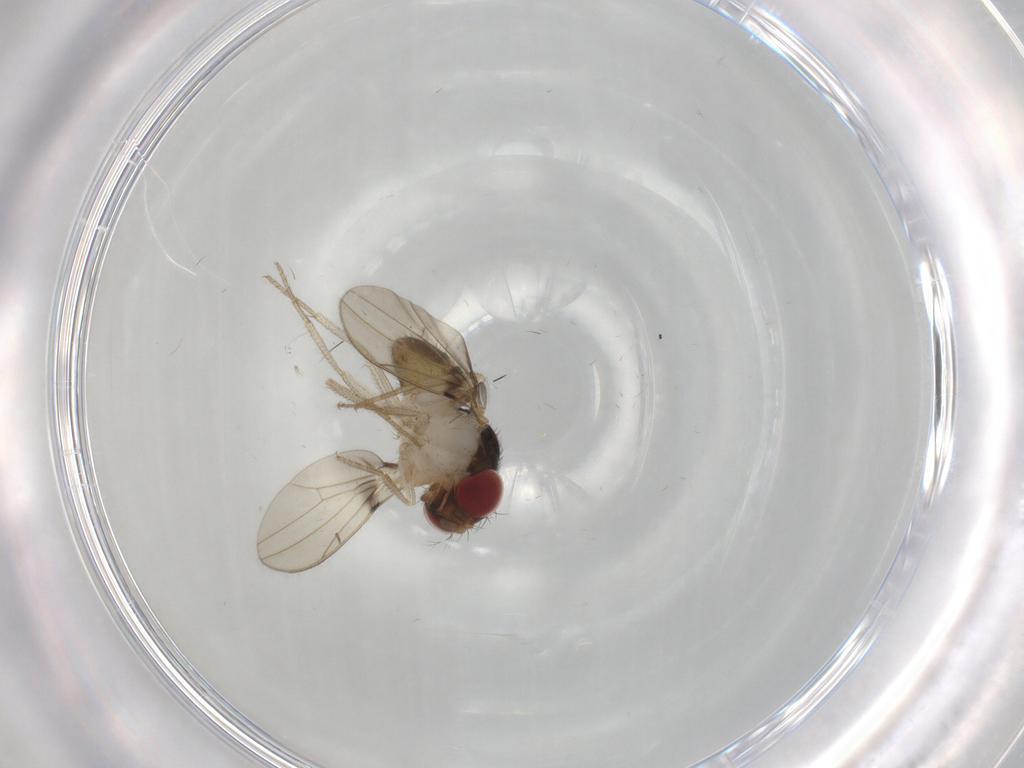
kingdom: Animalia
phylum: Arthropoda
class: Insecta
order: Diptera
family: Drosophilidae
